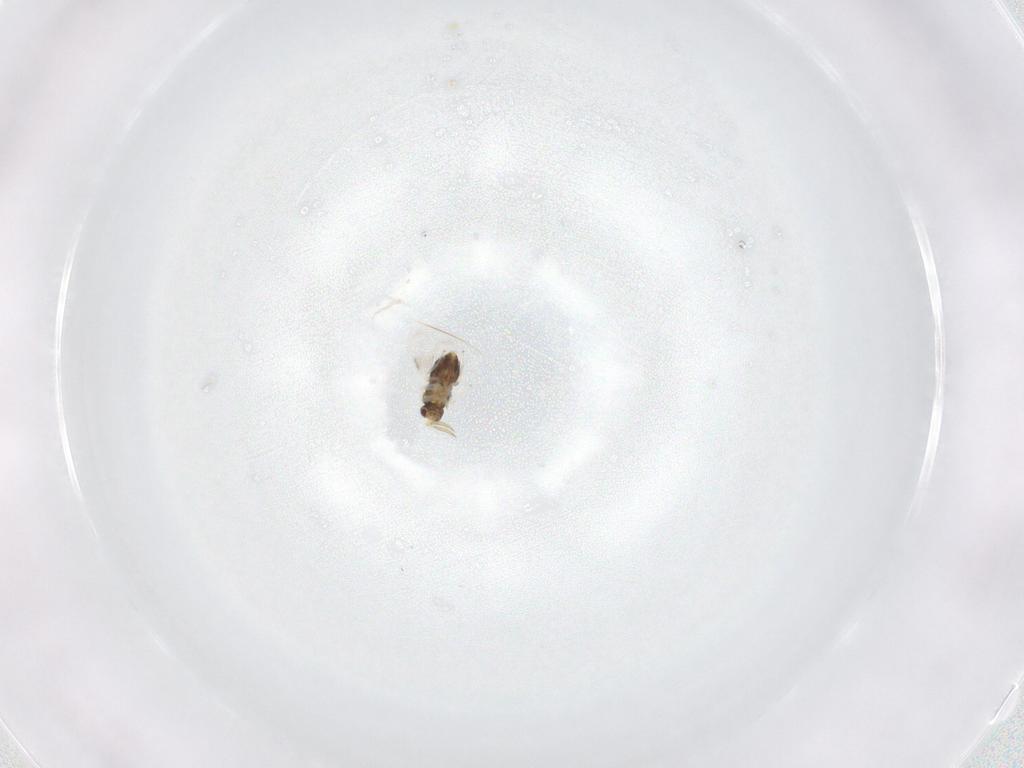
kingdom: Animalia
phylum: Arthropoda
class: Insecta
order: Hymenoptera
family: Aphelinidae
